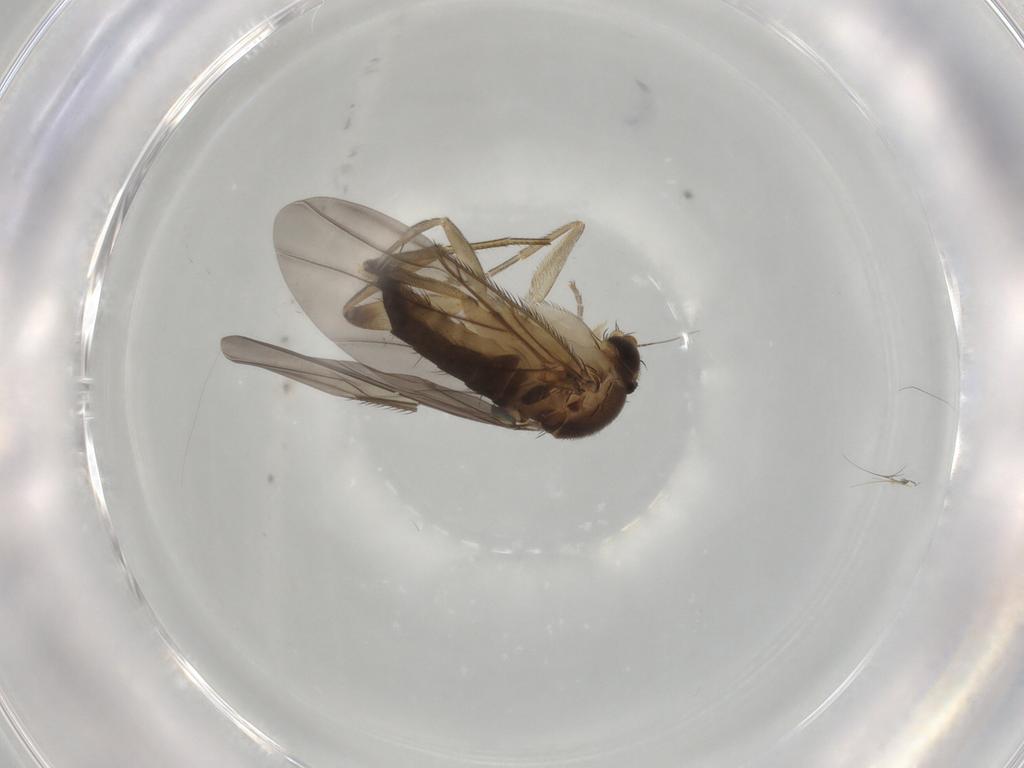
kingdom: Animalia
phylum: Arthropoda
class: Insecta
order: Diptera
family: Phoridae
